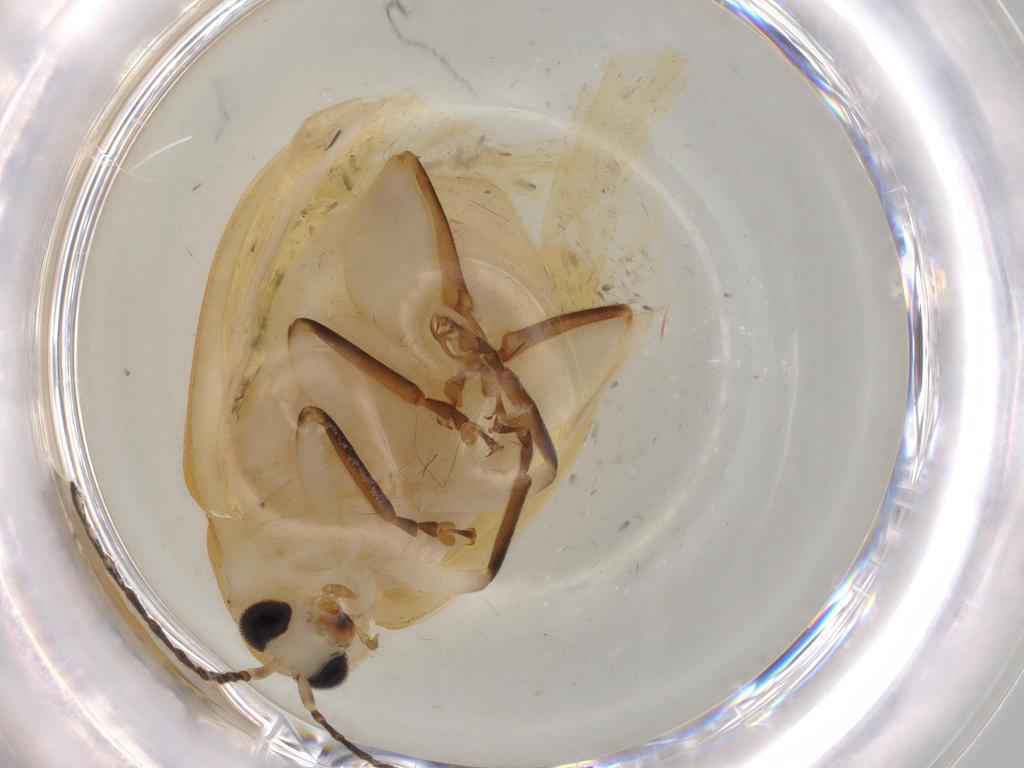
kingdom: Animalia
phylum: Arthropoda
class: Insecta
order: Coleoptera
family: Chrysomelidae
